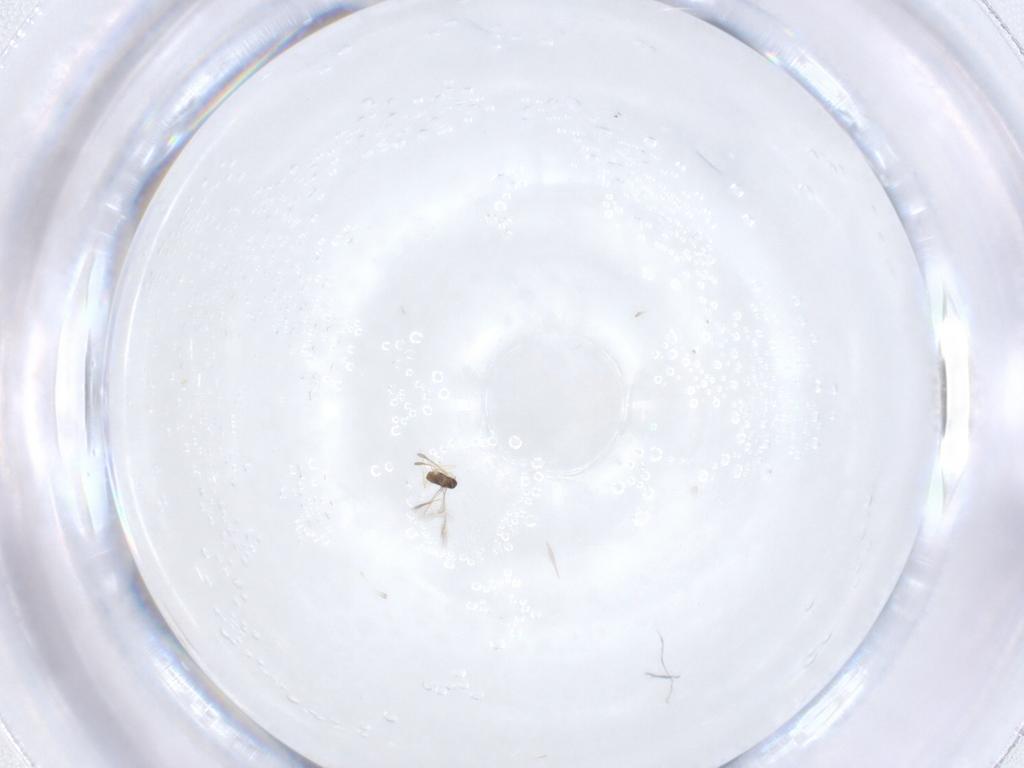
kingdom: Animalia
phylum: Arthropoda
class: Insecta
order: Hymenoptera
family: Mymaridae
